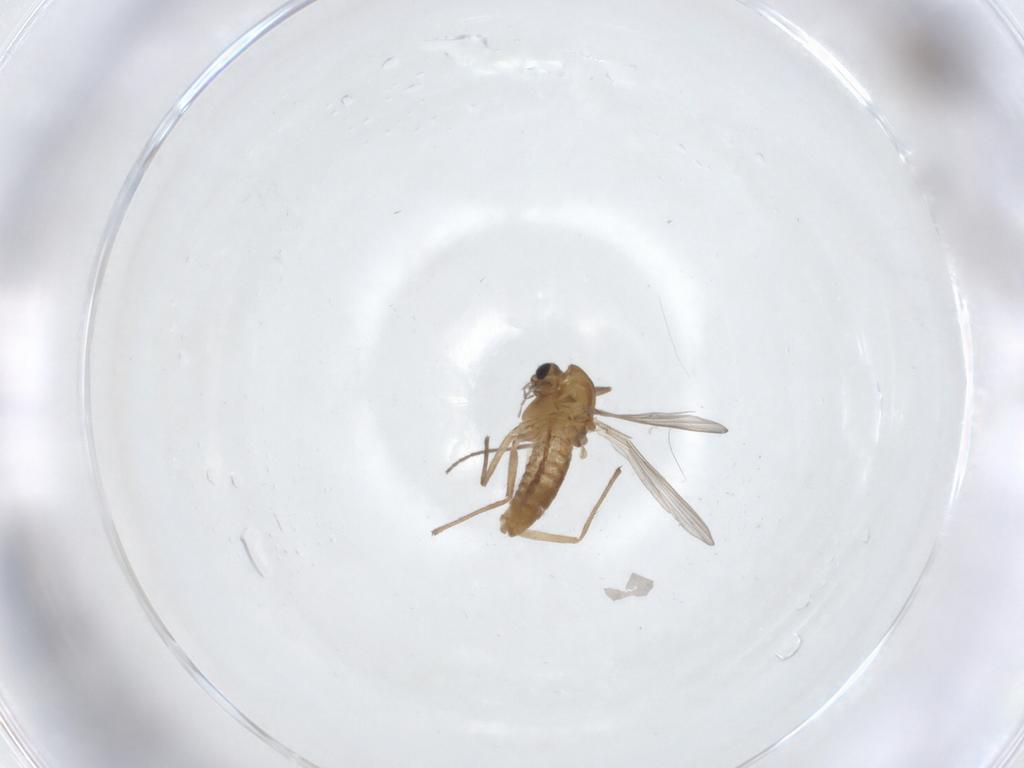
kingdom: Animalia
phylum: Arthropoda
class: Insecta
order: Diptera
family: Chironomidae
